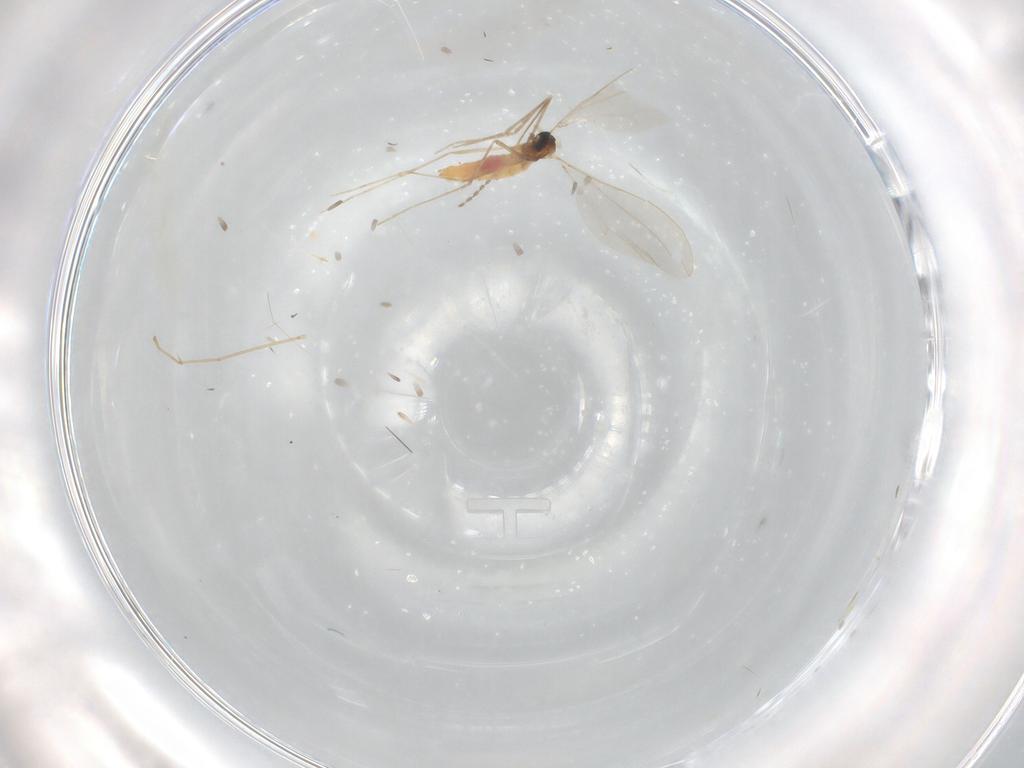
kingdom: Animalia
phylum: Arthropoda
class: Insecta
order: Diptera
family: Cecidomyiidae
